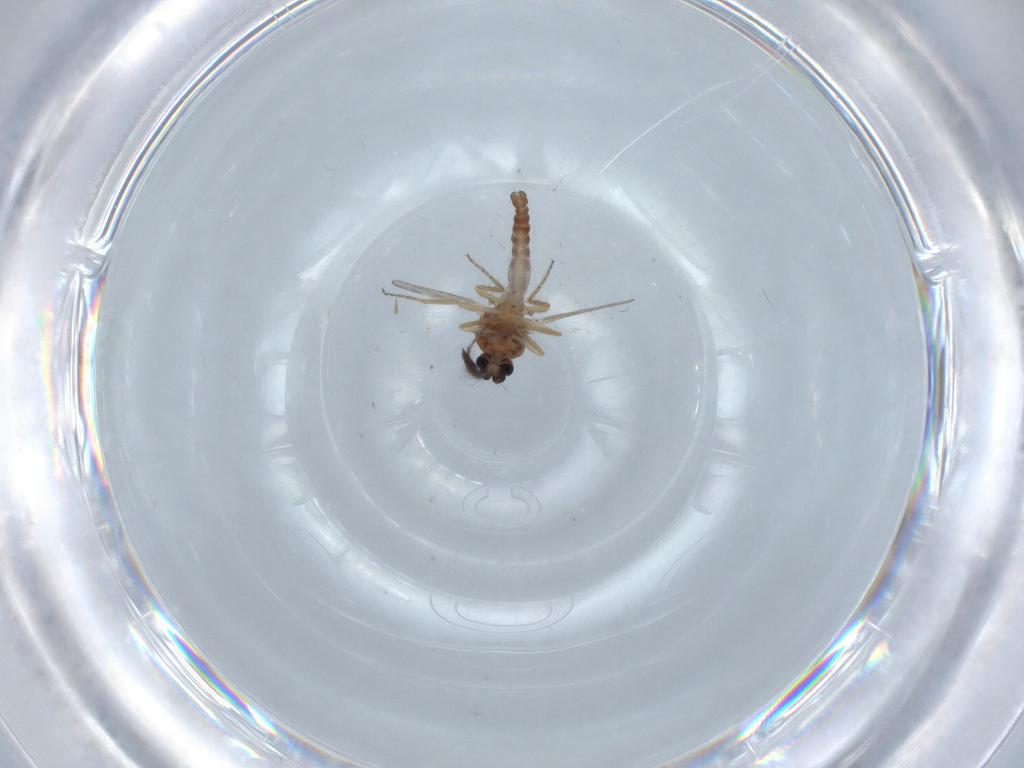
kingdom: Animalia
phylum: Arthropoda
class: Insecta
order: Diptera
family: Ceratopogonidae
